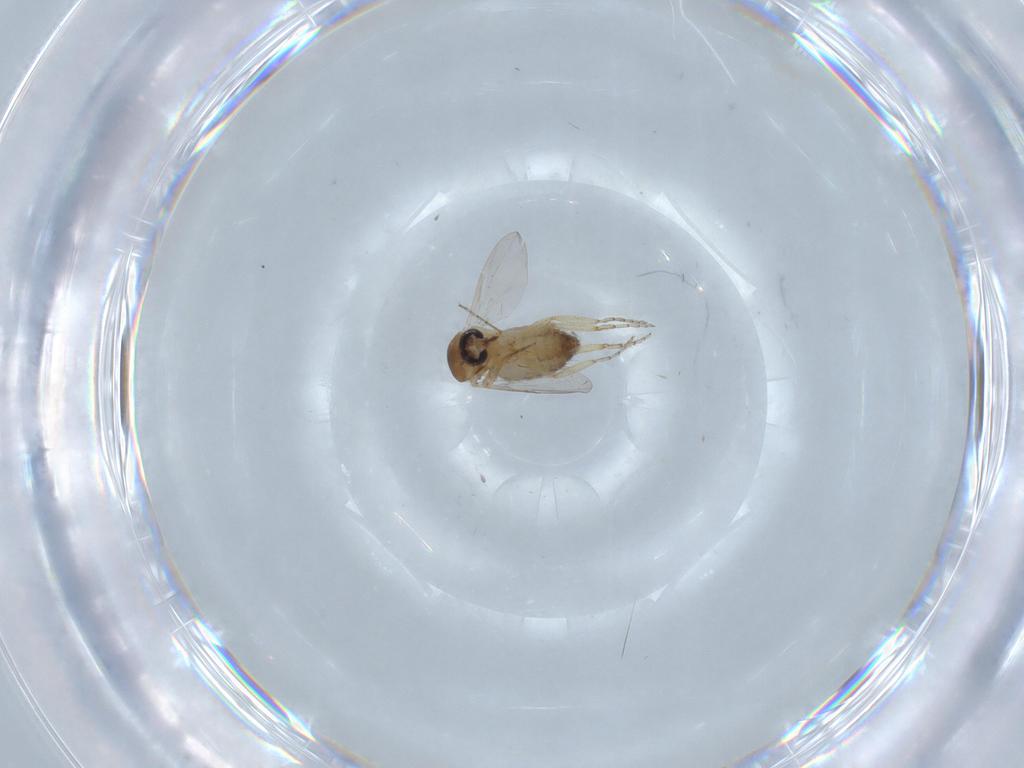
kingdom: Animalia
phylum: Arthropoda
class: Insecta
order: Diptera
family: Ceratopogonidae
